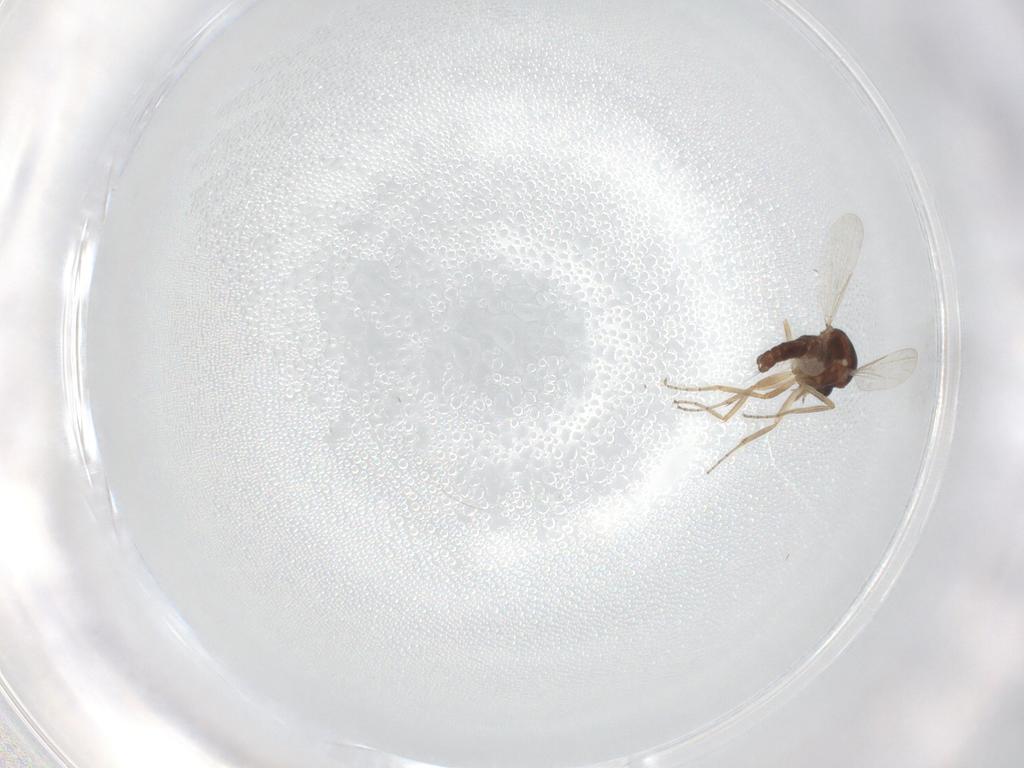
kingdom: Animalia
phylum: Arthropoda
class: Insecta
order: Diptera
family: Ceratopogonidae
